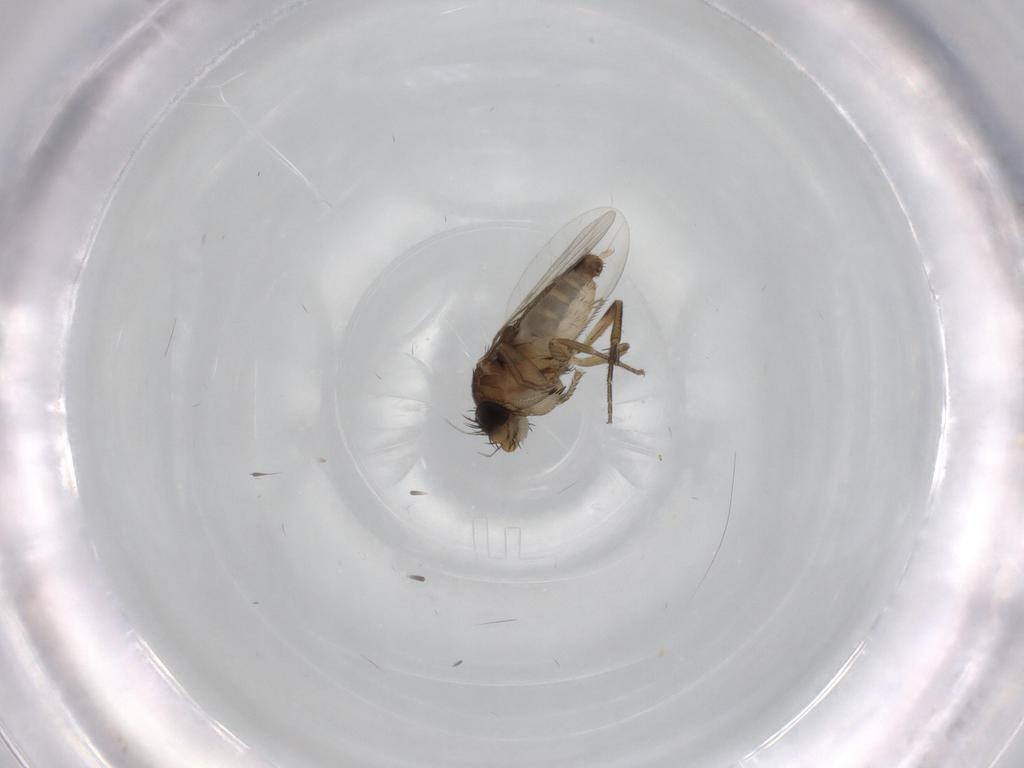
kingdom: Animalia
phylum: Arthropoda
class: Insecta
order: Diptera
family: Phoridae
